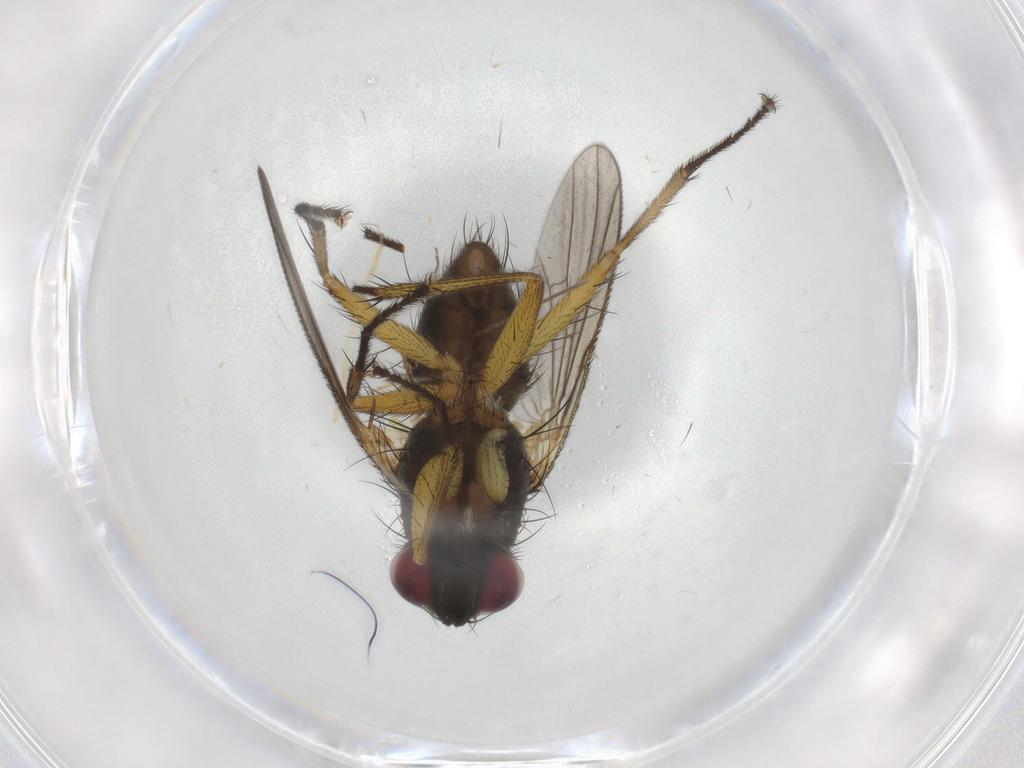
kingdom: Animalia
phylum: Arthropoda
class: Insecta
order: Diptera
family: Muscidae
